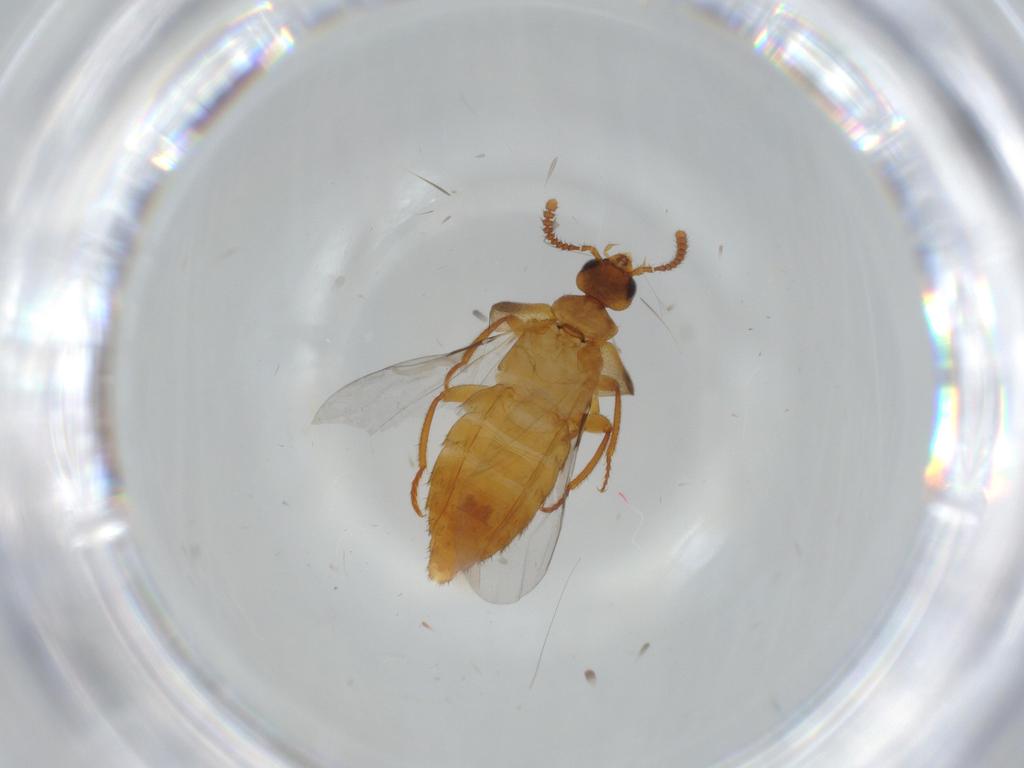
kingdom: Animalia
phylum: Arthropoda
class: Insecta
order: Coleoptera
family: Staphylinidae
